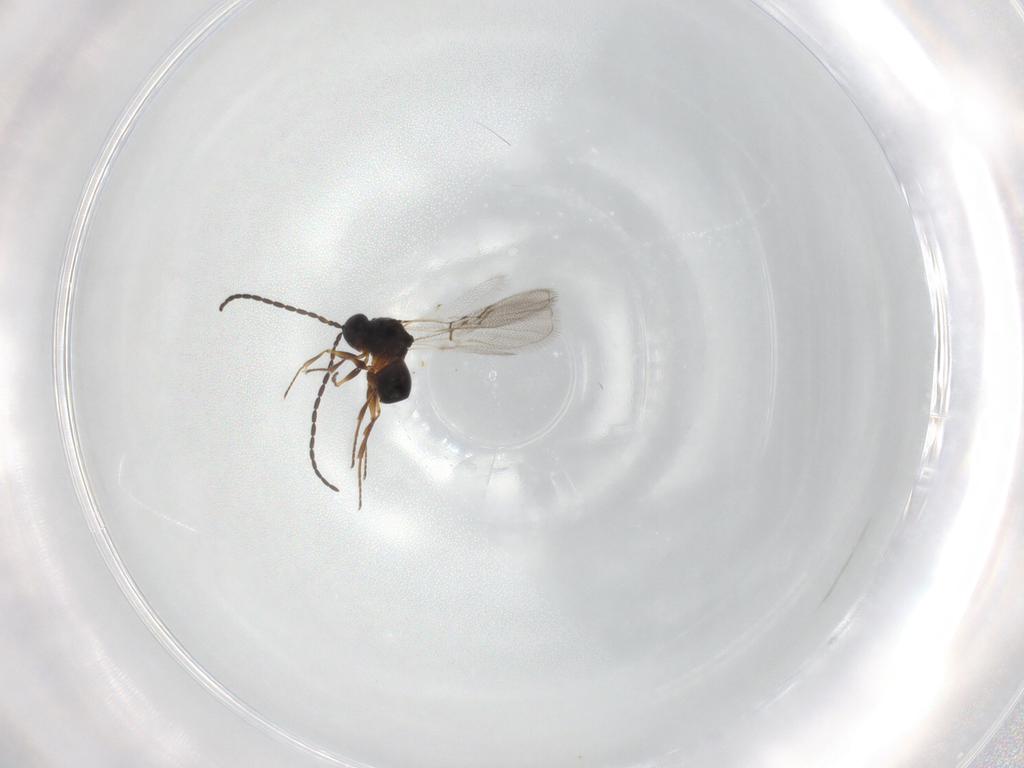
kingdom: Animalia
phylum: Arthropoda
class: Insecta
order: Hymenoptera
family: Figitidae
